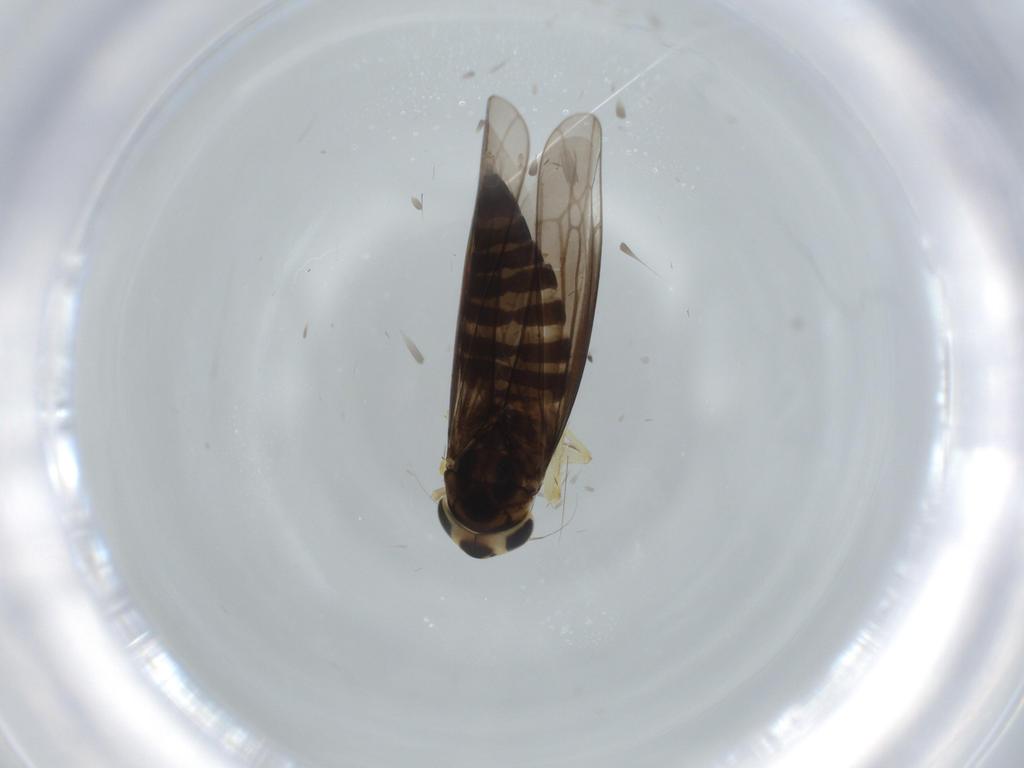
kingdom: Animalia
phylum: Arthropoda
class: Insecta
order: Hemiptera
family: Cicadellidae
